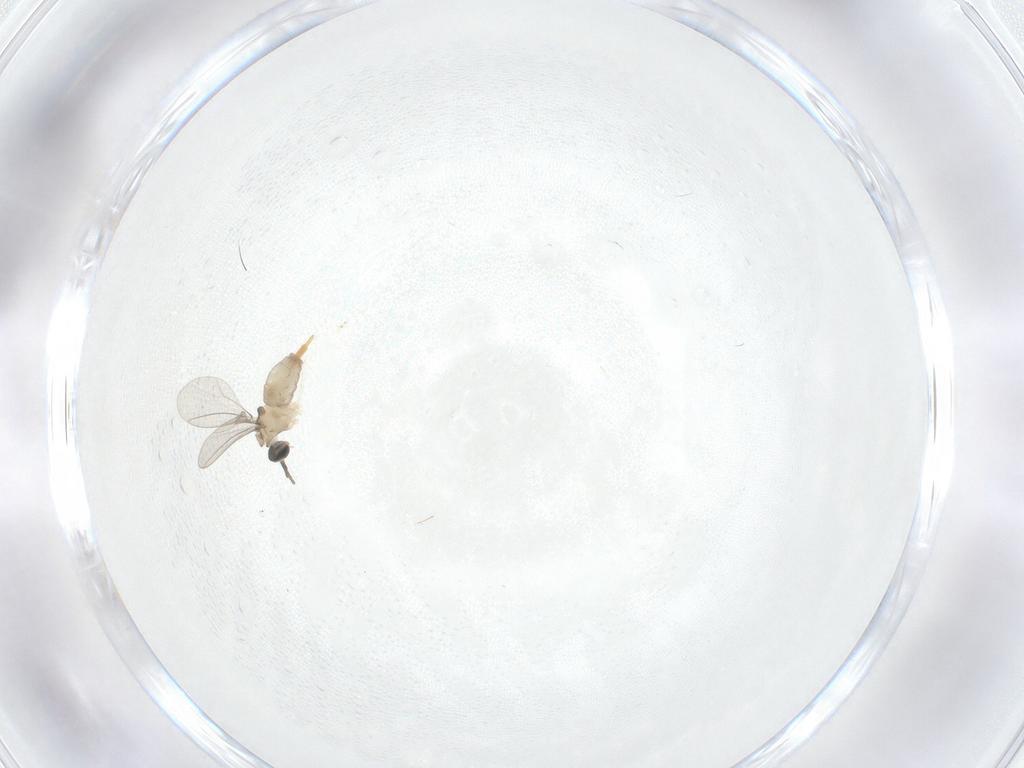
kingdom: Animalia
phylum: Arthropoda
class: Insecta
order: Diptera
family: Cecidomyiidae
